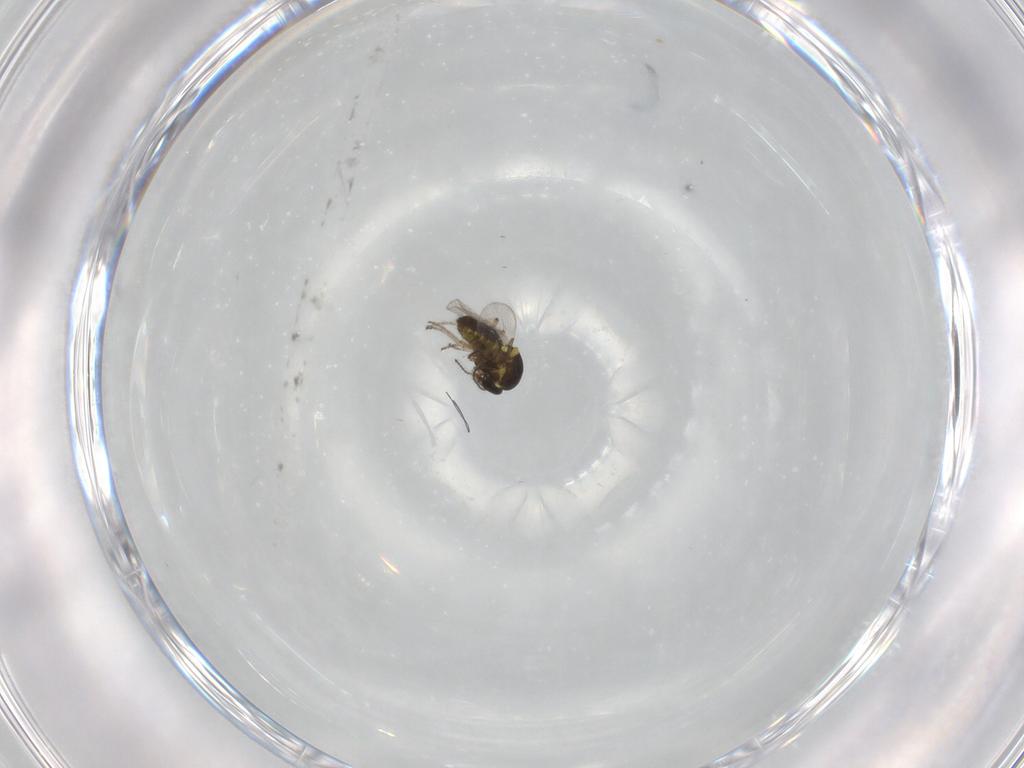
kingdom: Animalia
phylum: Arthropoda
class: Insecta
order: Diptera
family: Ceratopogonidae
